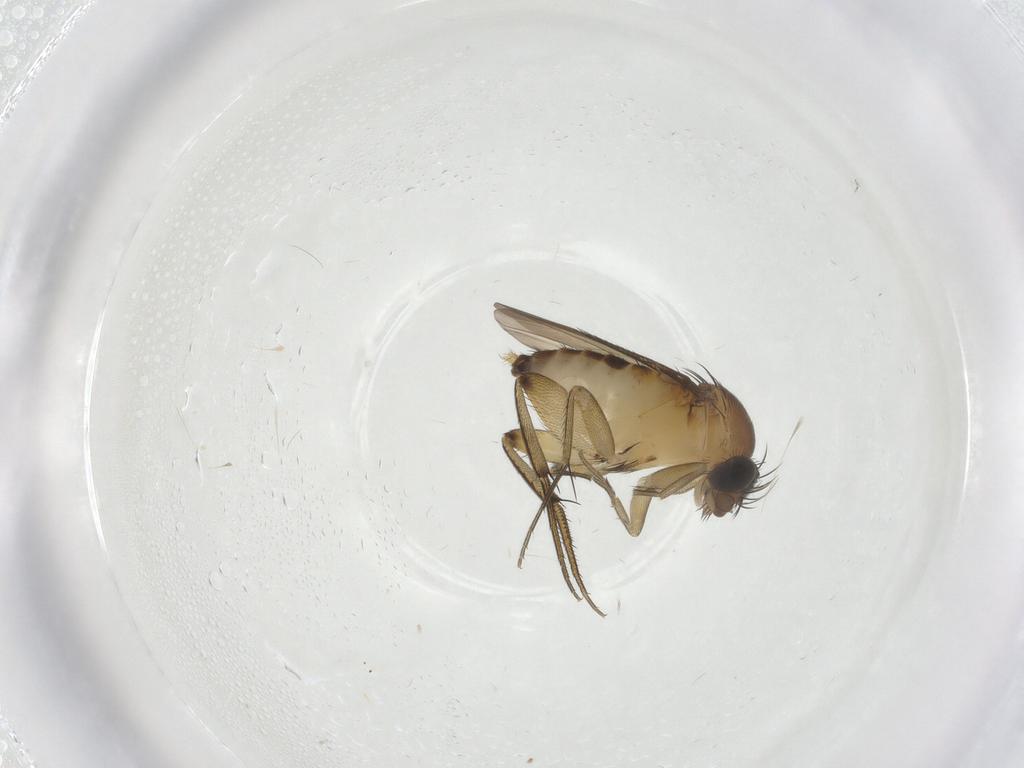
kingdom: Animalia
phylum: Arthropoda
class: Insecta
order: Diptera
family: Phoridae
